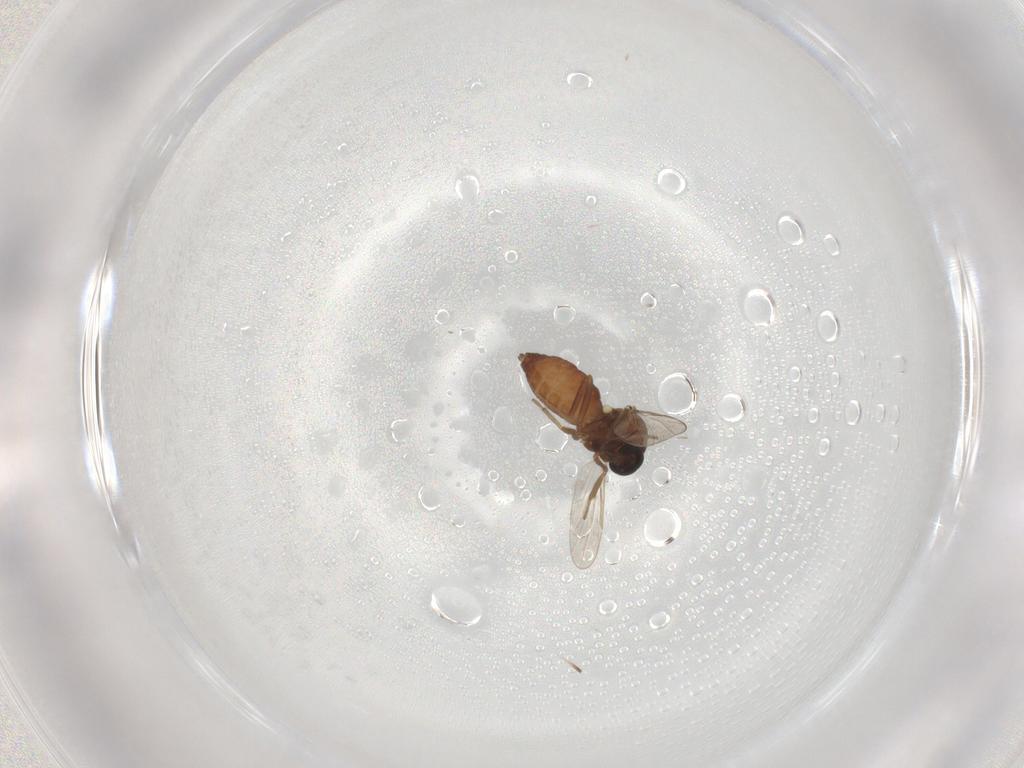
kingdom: Animalia
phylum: Arthropoda
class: Insecta
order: Diptera
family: Ceratopogonidae
